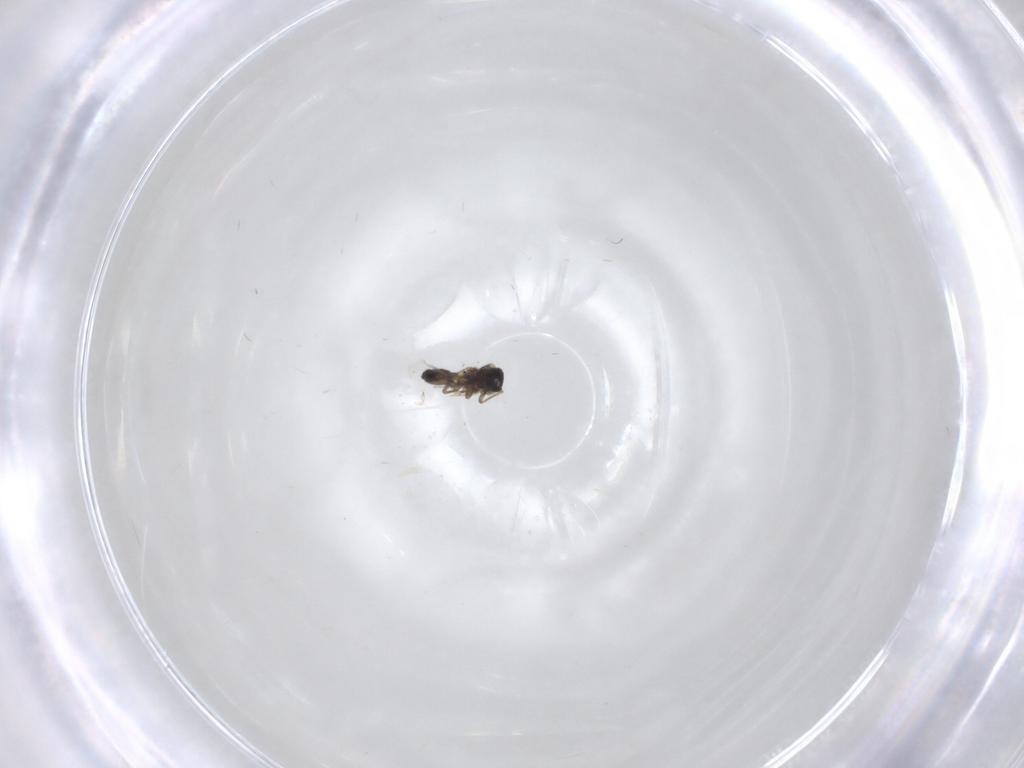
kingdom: Animalia
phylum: Arthropoda
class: Insecta
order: Diptera
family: Ceratopogonidae
